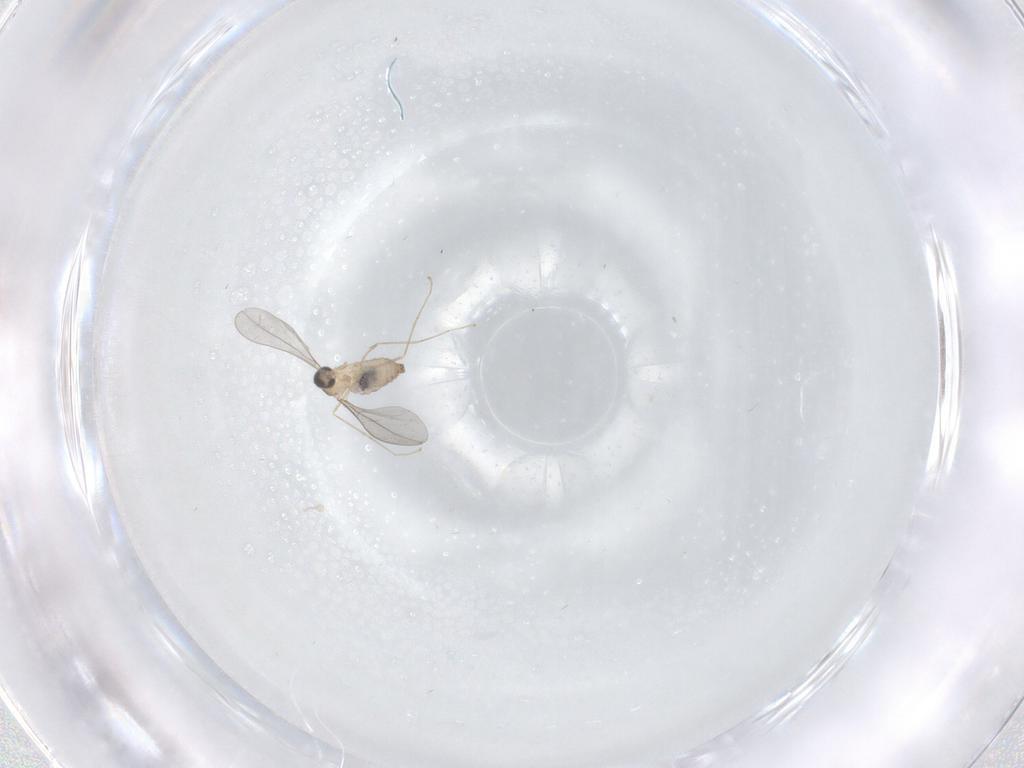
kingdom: Animalia
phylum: Arthropoda
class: Insecta
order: Diptera
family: Cecidomyiidae
